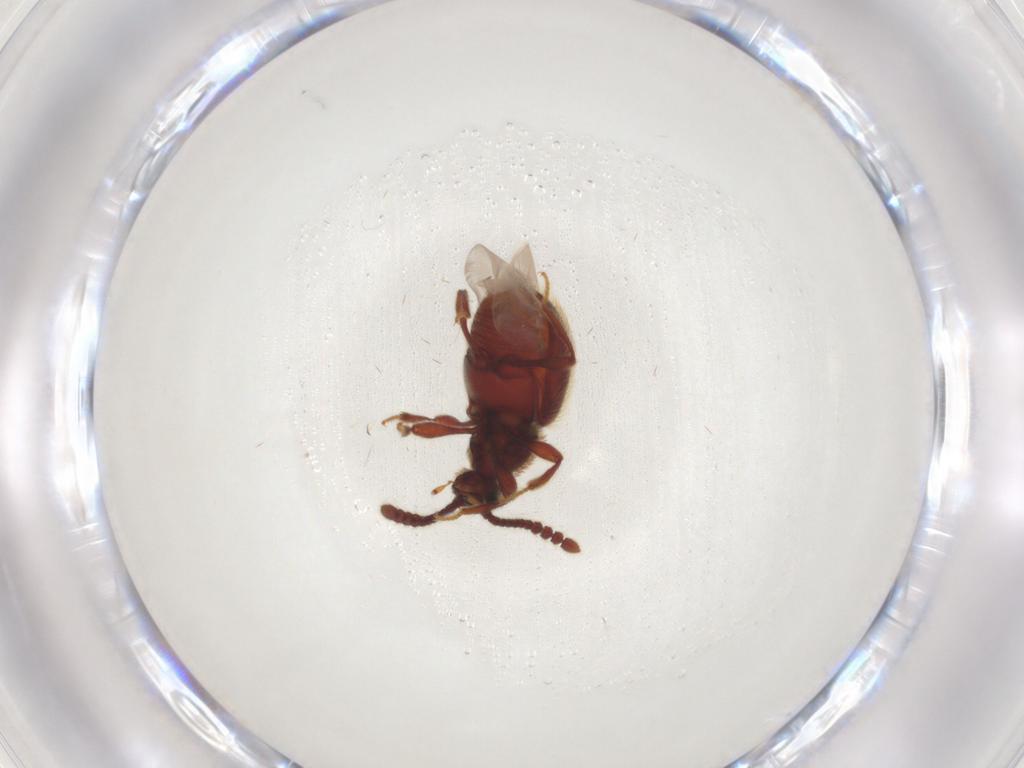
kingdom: Animalia
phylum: Arthropoda
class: Insecta
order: Coleoptera
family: Staphylinidae
